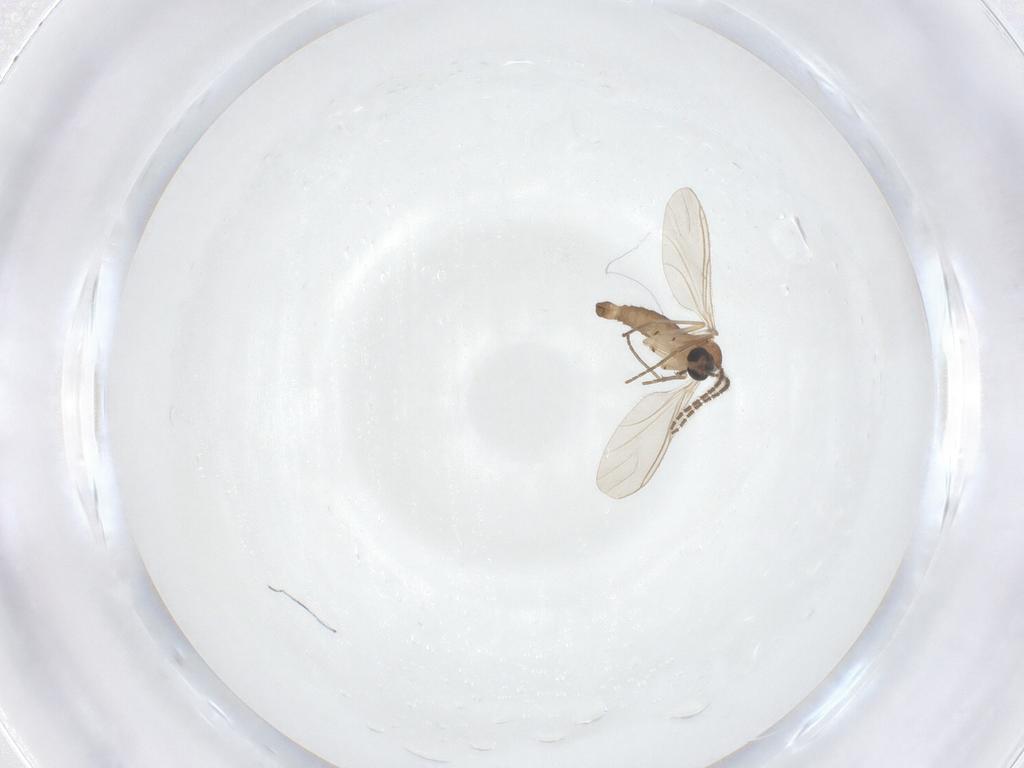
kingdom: Animalia
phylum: Arthropoda
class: Insecta
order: Diptera
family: Sciaridae
